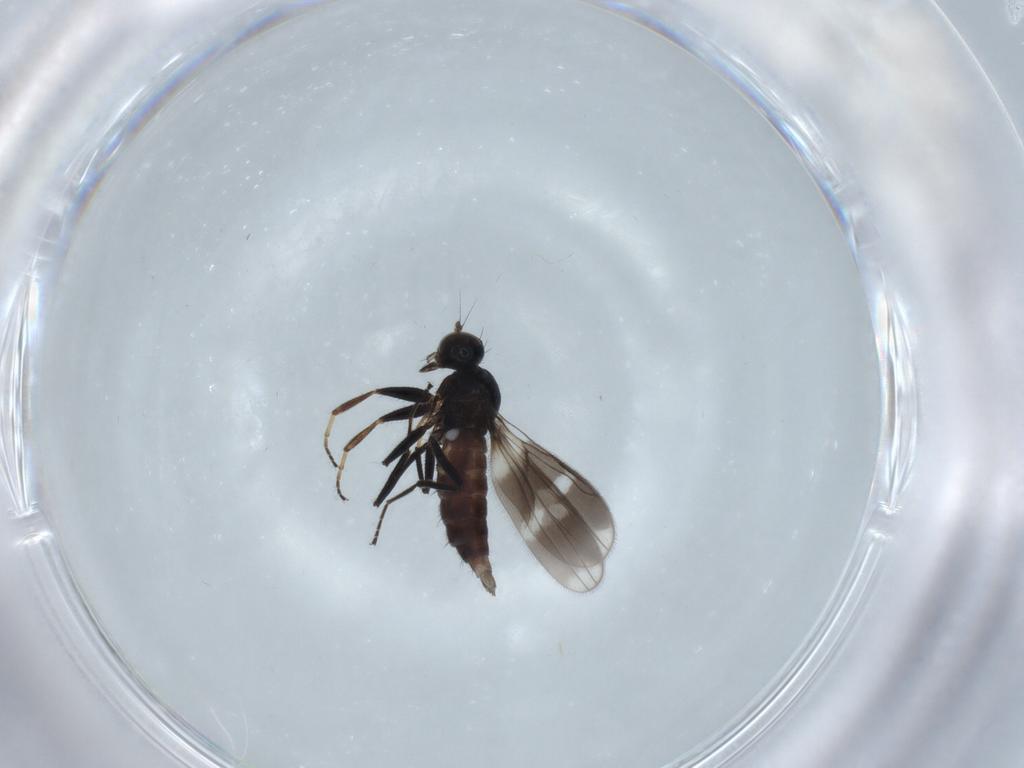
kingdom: Animalia
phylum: Arthropoda
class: Insecta
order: Diptera
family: Hybotidae
